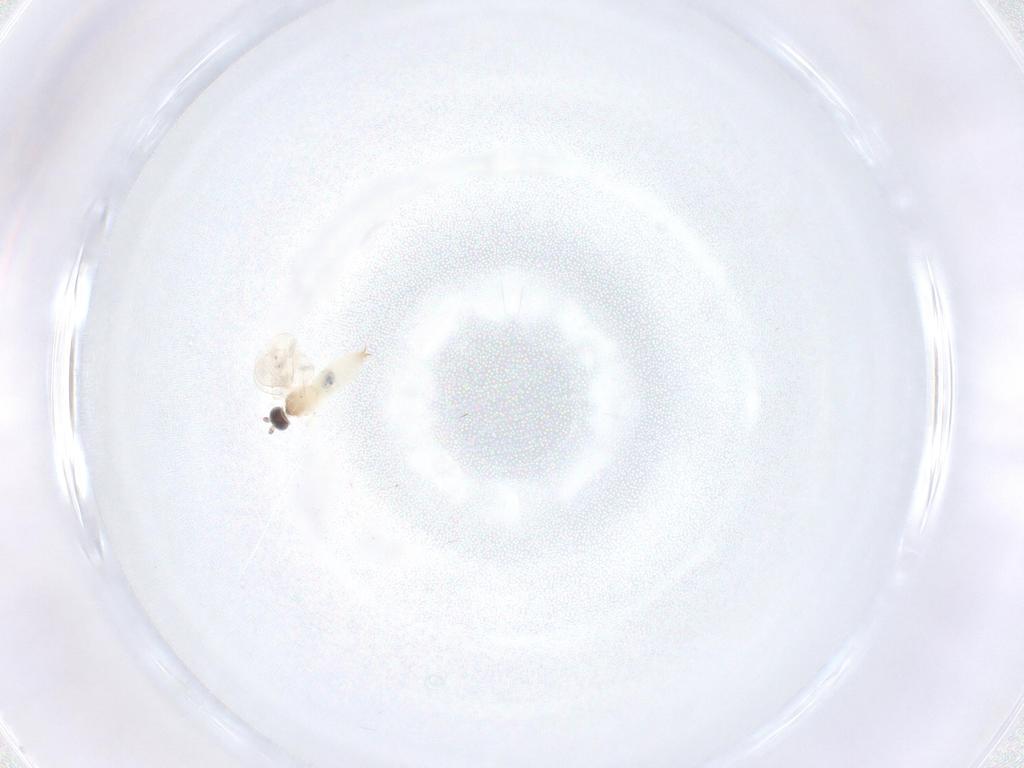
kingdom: Animalia
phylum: Arthropoda
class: Insecta
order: Diptera
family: Cecidomyiidae
